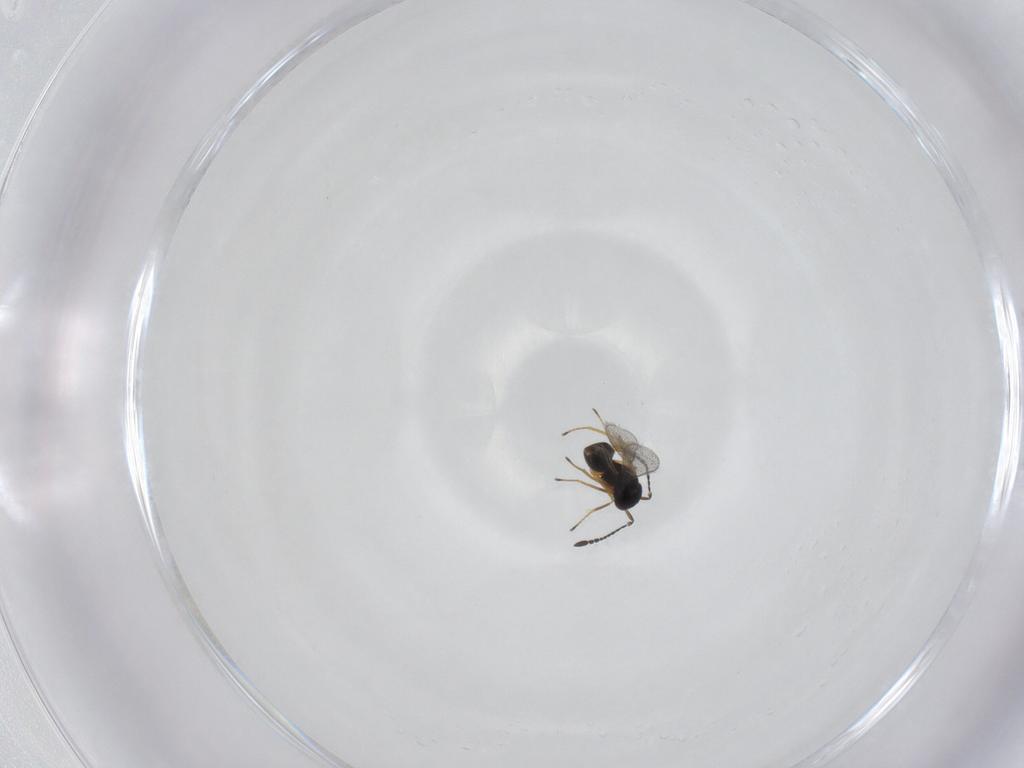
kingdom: Animalia
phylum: Arthropoda
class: Insecta
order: Hymenoptera
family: Mymaridae
